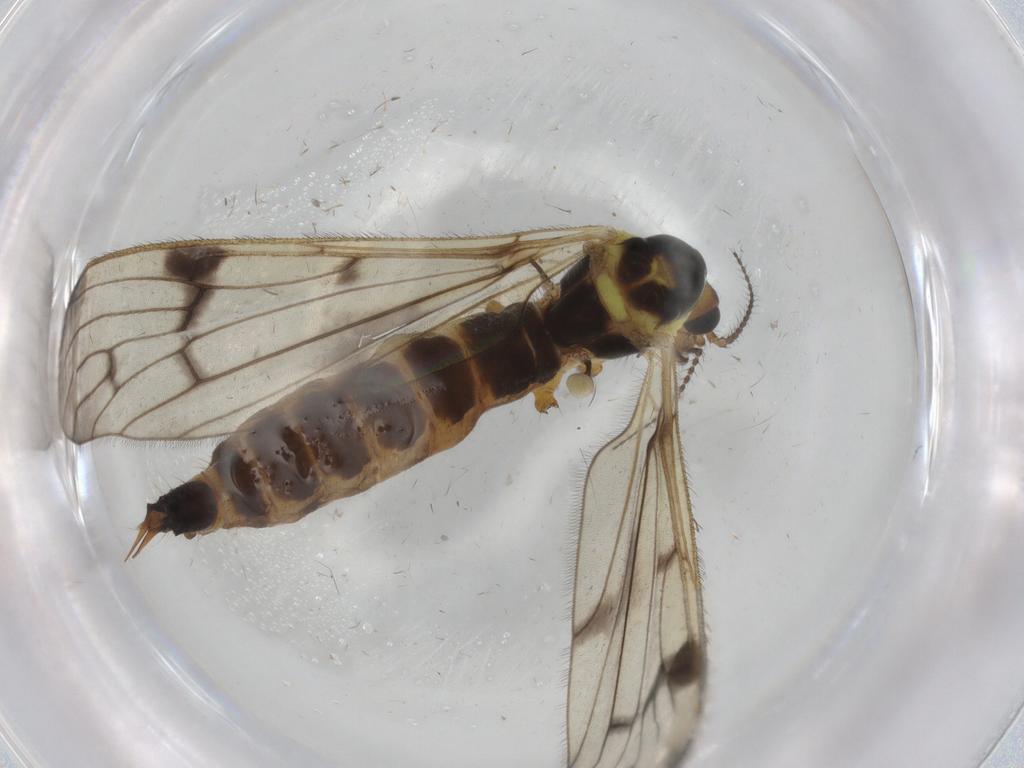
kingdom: Animalia
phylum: Arthropoda
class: Insecta
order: Diptera
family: Limoniidae
